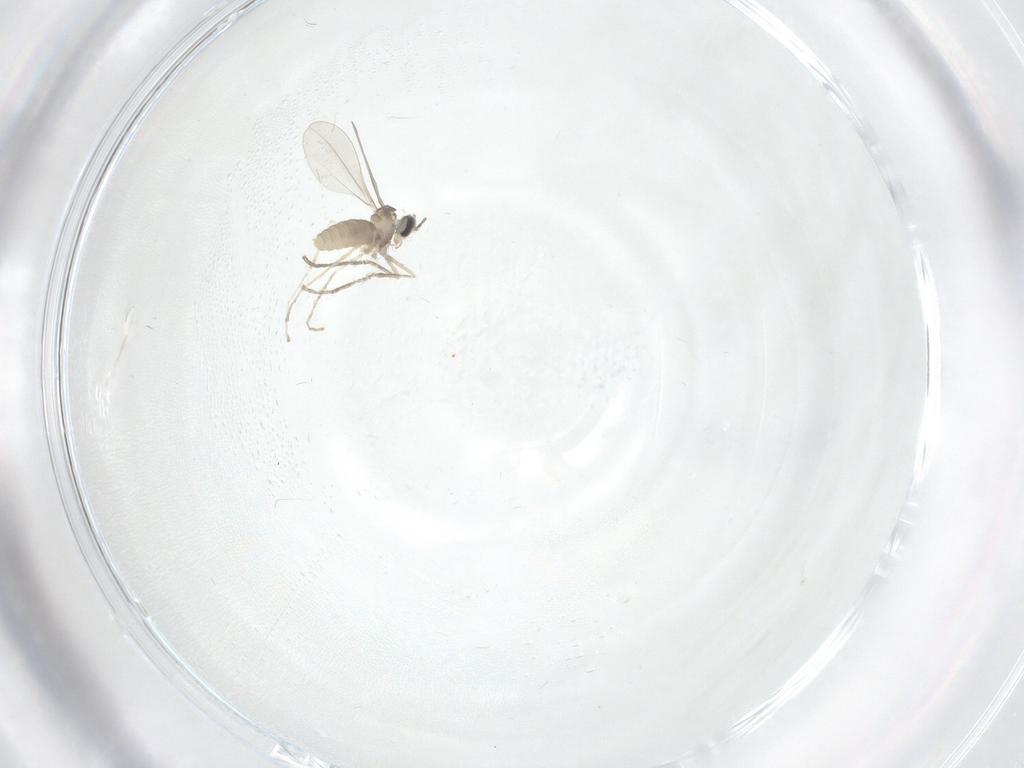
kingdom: Animalia
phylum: Arthropoda
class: Insecta
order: Diptera
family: Cecidomyiidae
